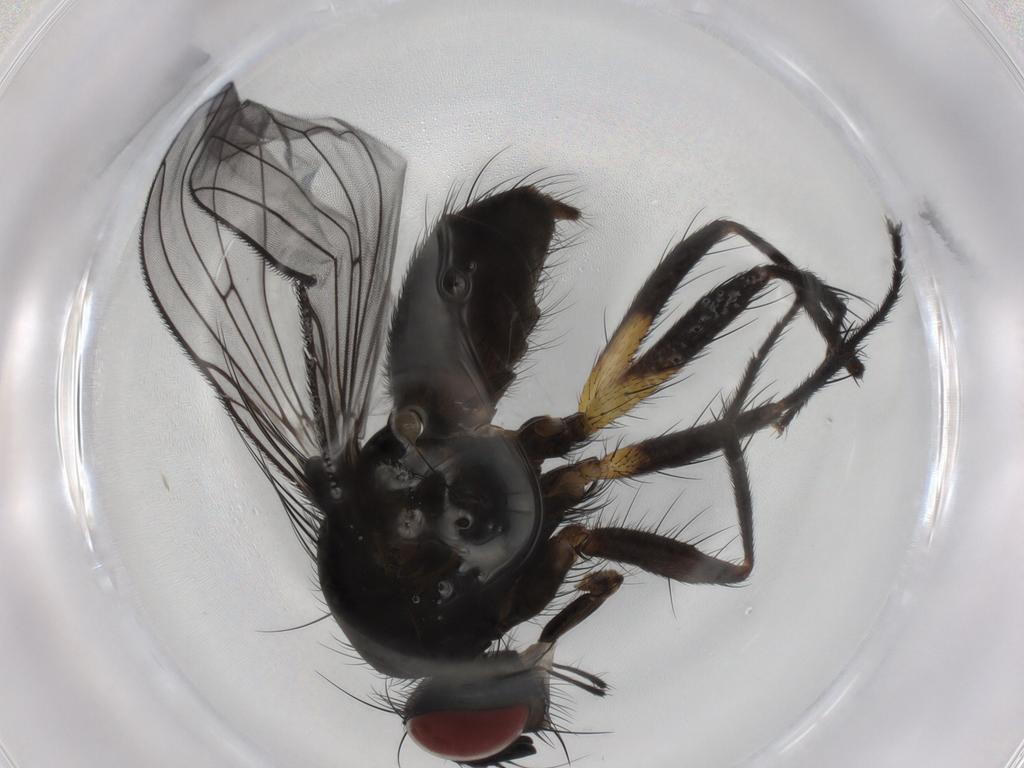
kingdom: Animalia
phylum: Arthropoda
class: Insecta
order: Diptera
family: Muscidae
